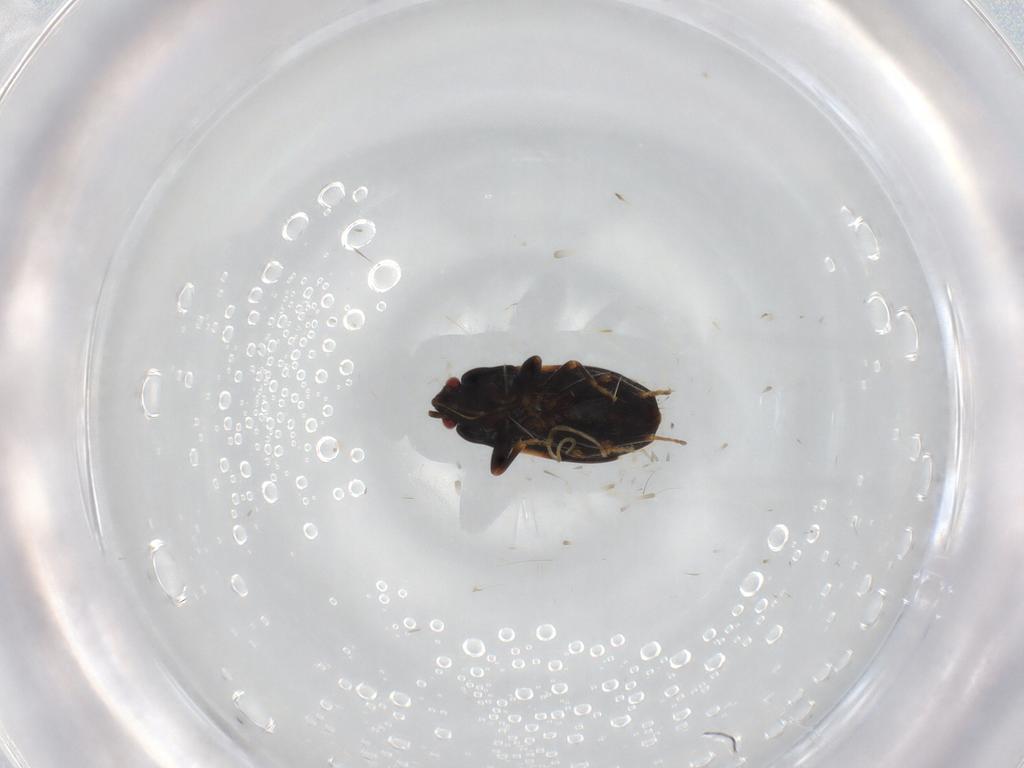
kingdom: Animalia
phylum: Arthropoda
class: Insecta
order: Hemiptera
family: Rhyparochromidae
